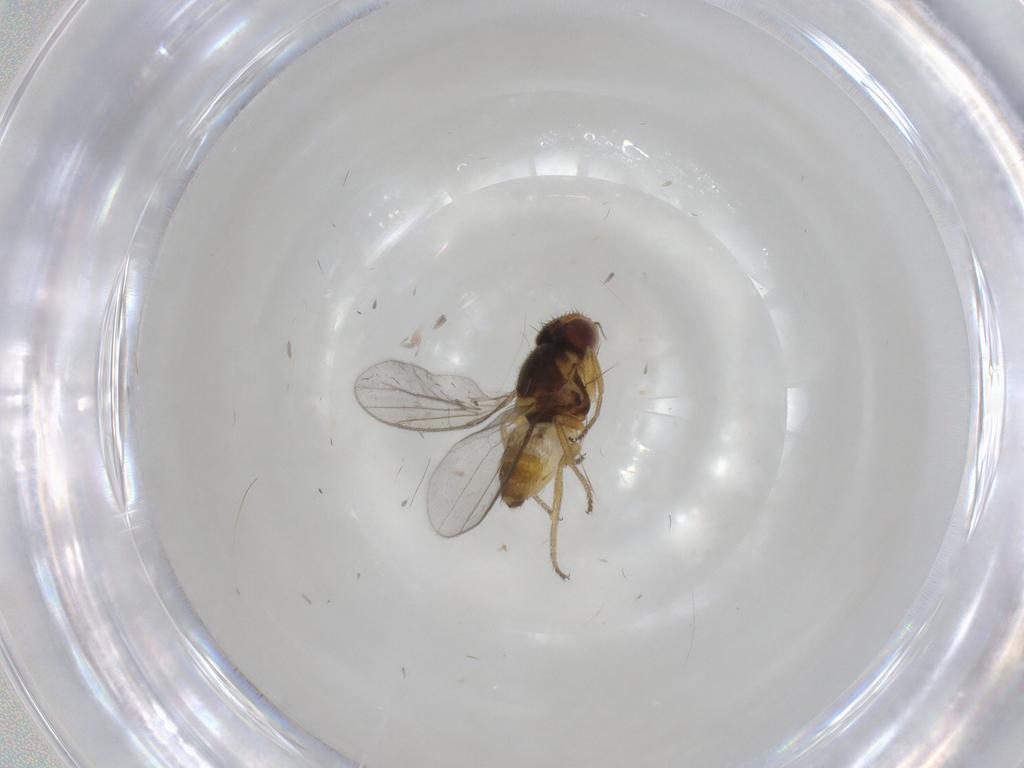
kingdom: Animalia
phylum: Arthropoda
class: Insecta
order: Diptera
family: Chloropidae
